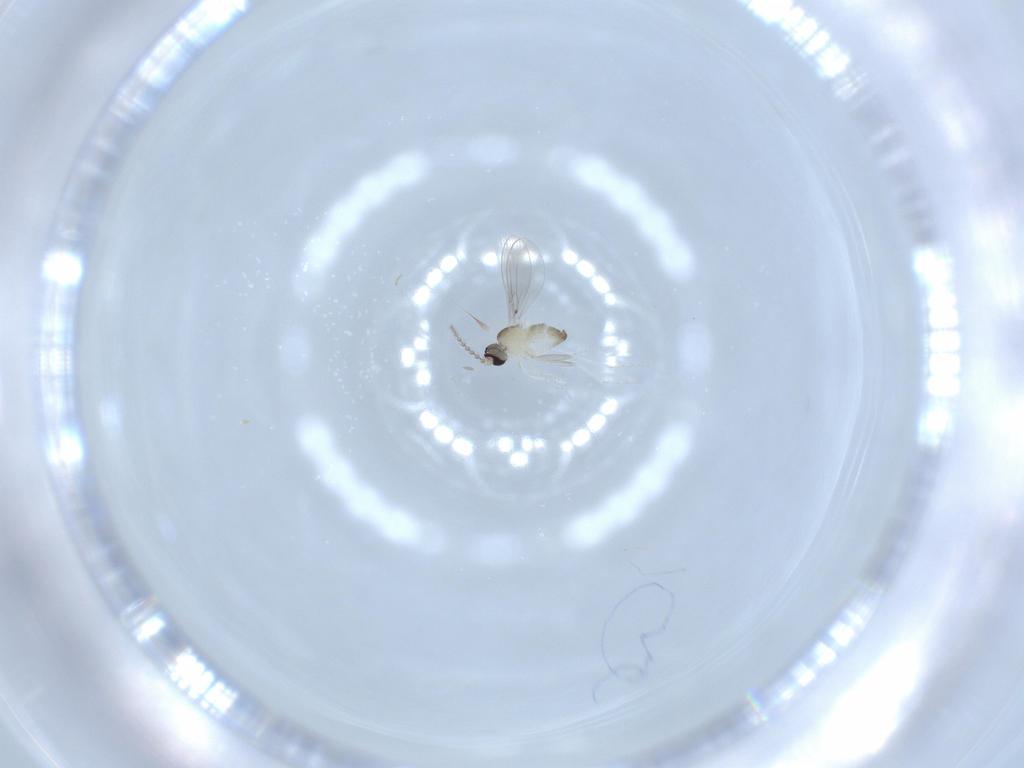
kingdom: Animalia
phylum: Arthropoda
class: Insecta
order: Diptera
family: Cecidomyiidae
